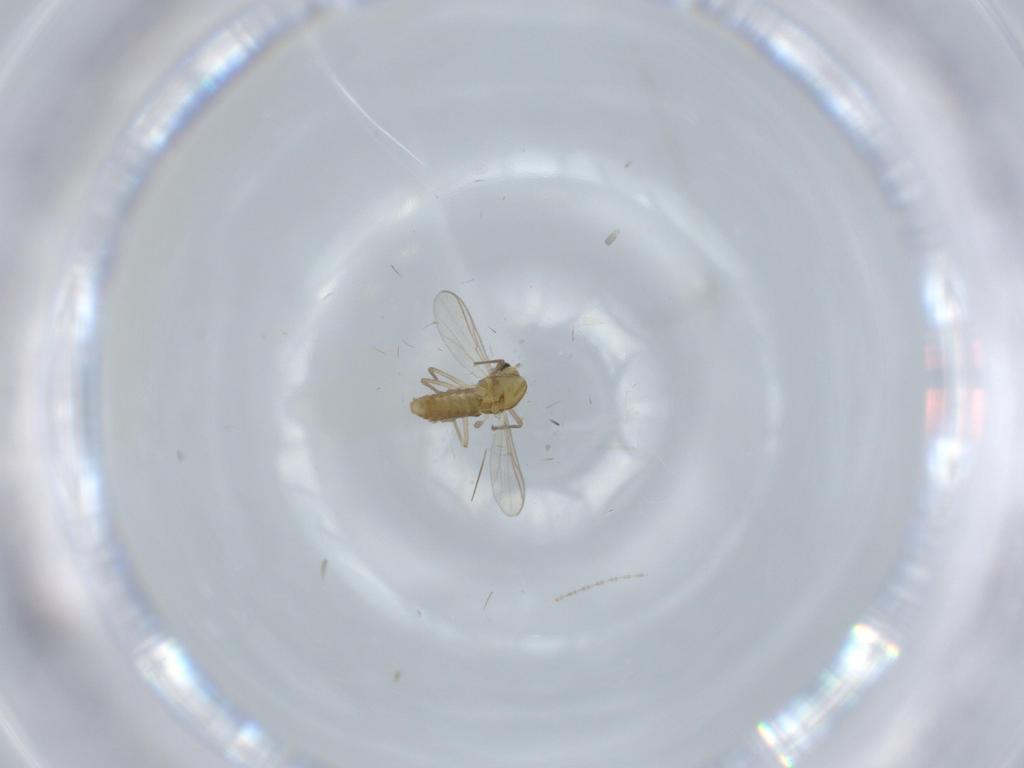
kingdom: Animalia
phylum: Arthropoda
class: Insecta
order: Diptera
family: Chironomidae
